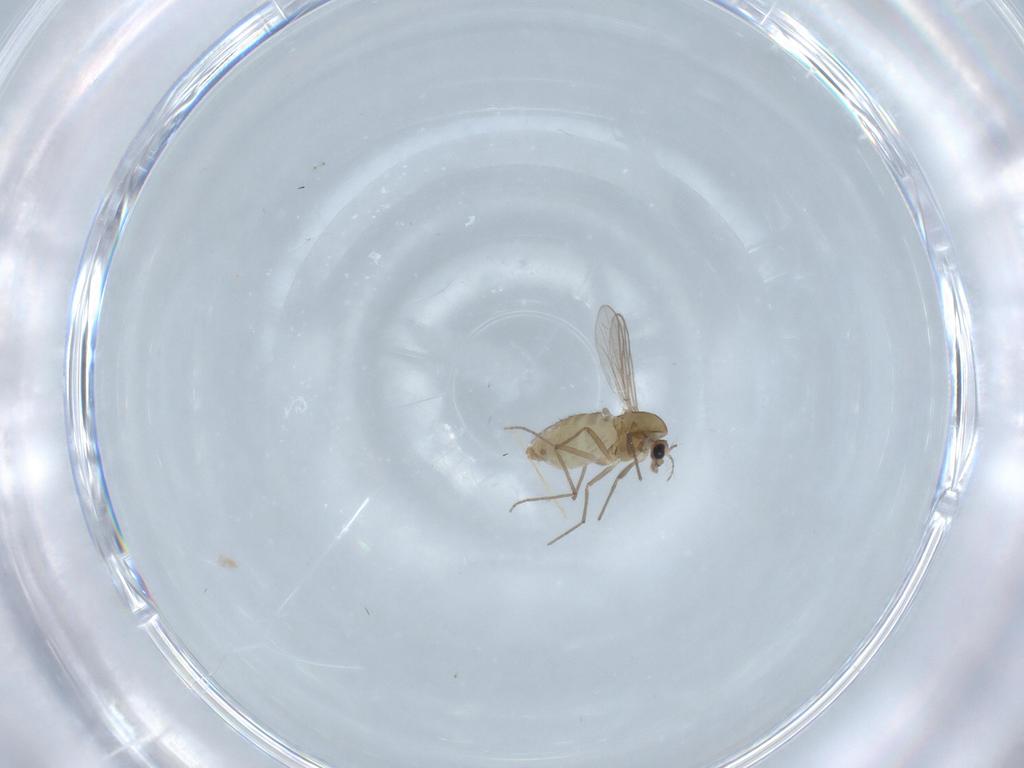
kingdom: Animalia
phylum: Arthropoda
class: Insecta
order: Diptera
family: Chironomidae
